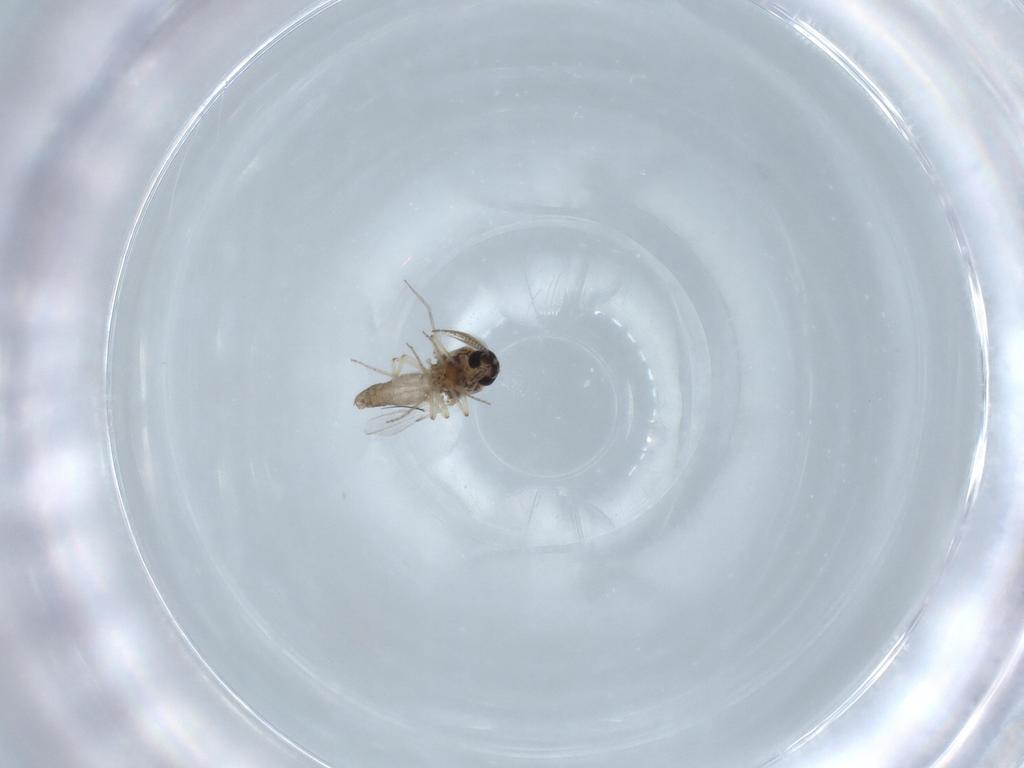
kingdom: Animalia
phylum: Arthropoda
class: Insecta
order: Diptera
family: Ceratopogonidae
